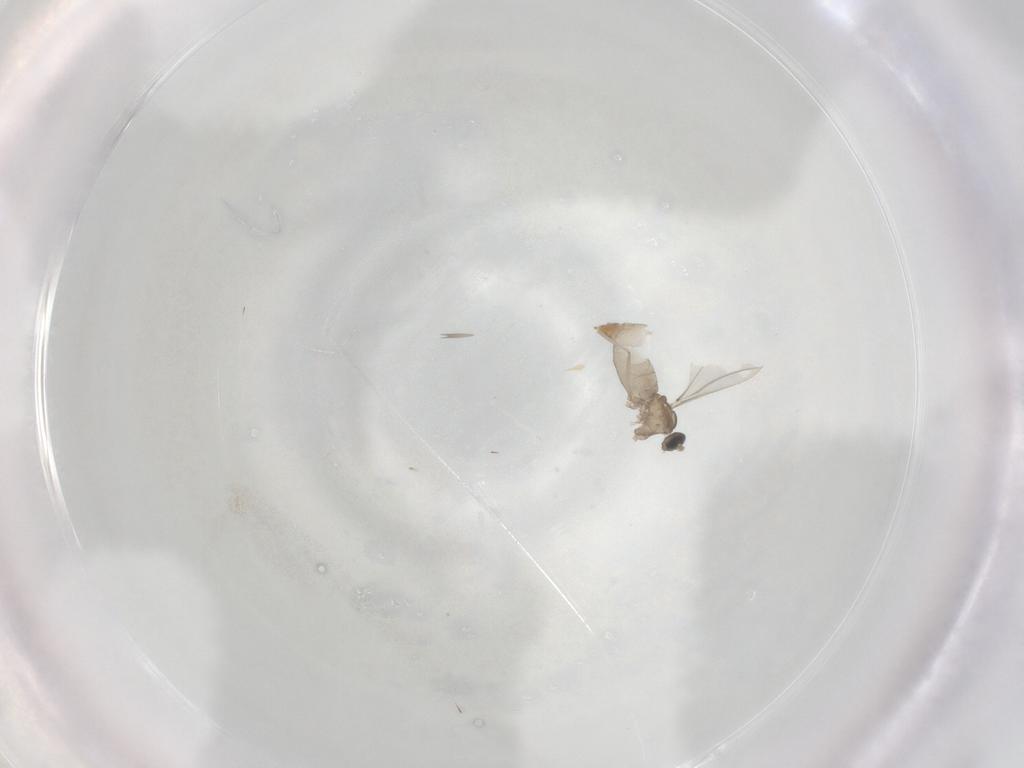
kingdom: Animalia
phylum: Arthropoda
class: Insecta
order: Diptera
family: Cecidomyiidae
